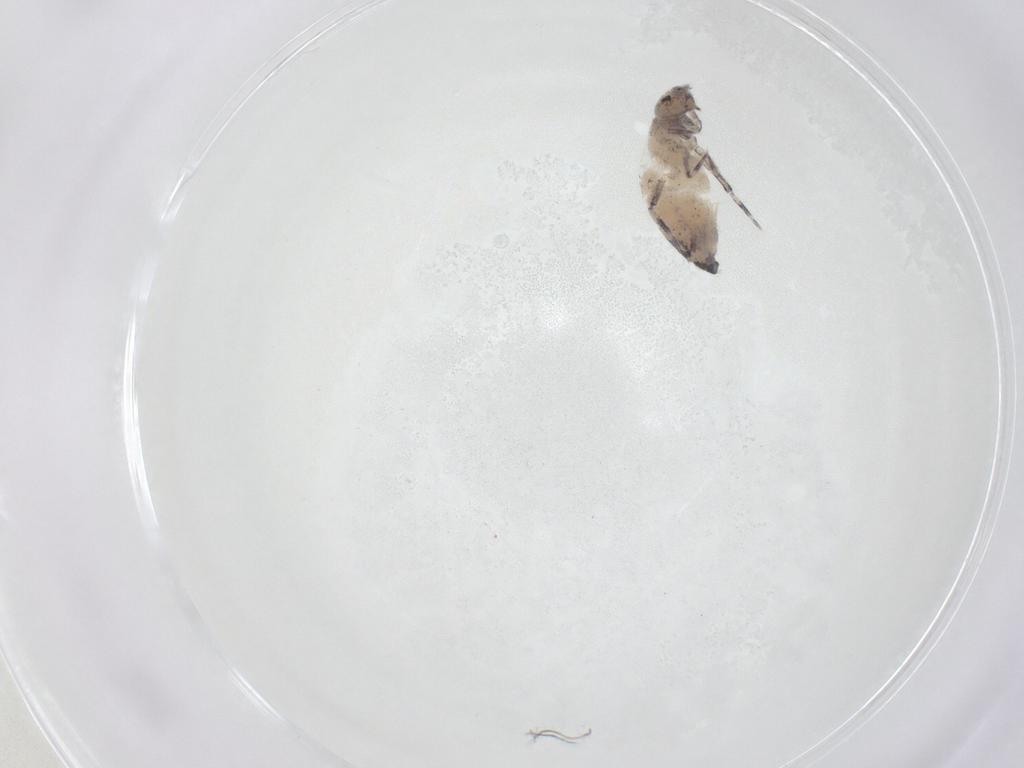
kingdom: Animalia
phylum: Arthropoda
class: Collembola
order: Entomobryomorpha
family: Entomobryidae
